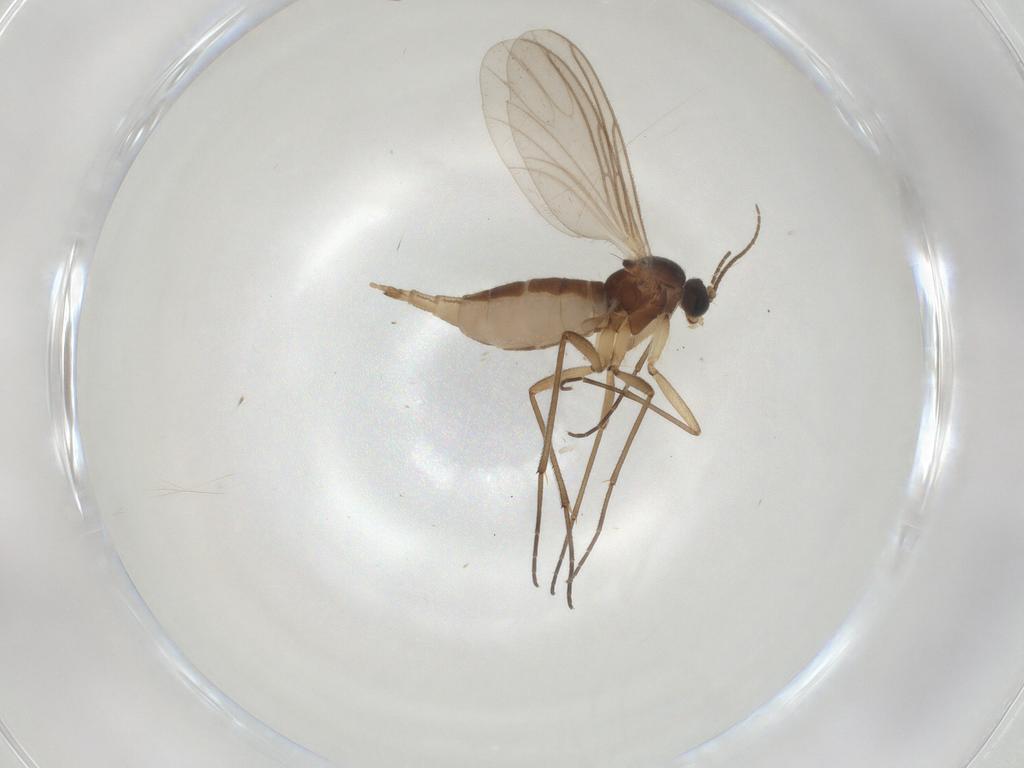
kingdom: Animalia
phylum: Arthropoda
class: Insecta
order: Diptera
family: Sciaridae
